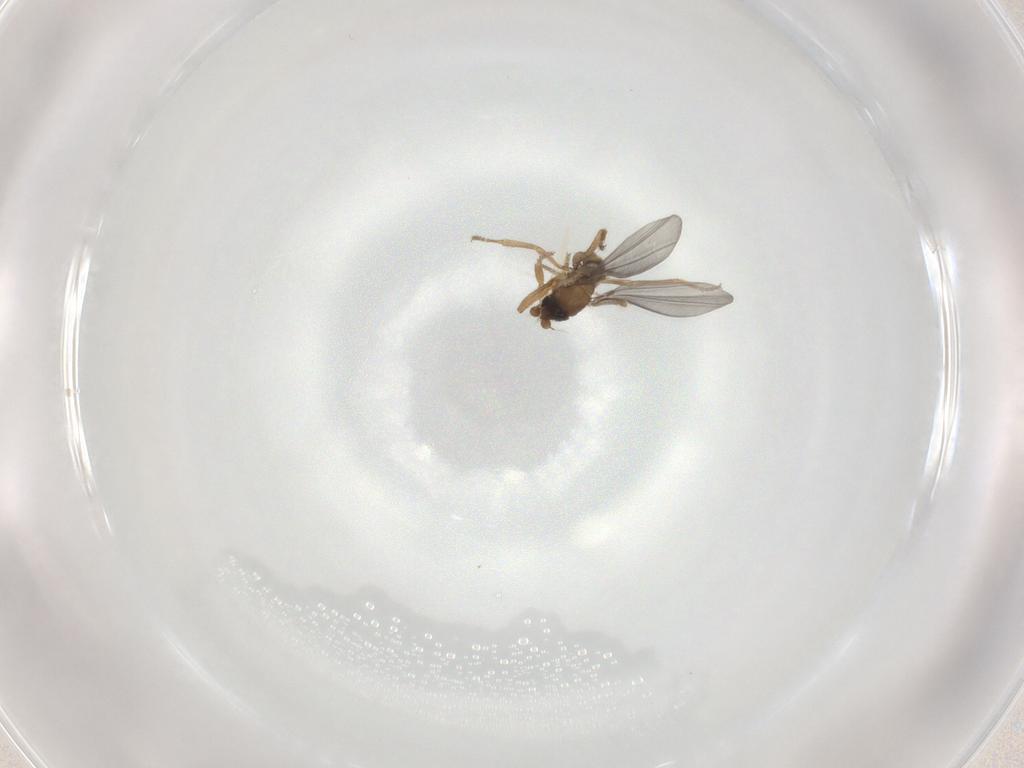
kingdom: Animalia
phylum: Arthropoda
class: Insecta
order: Diptera
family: Phoridae
